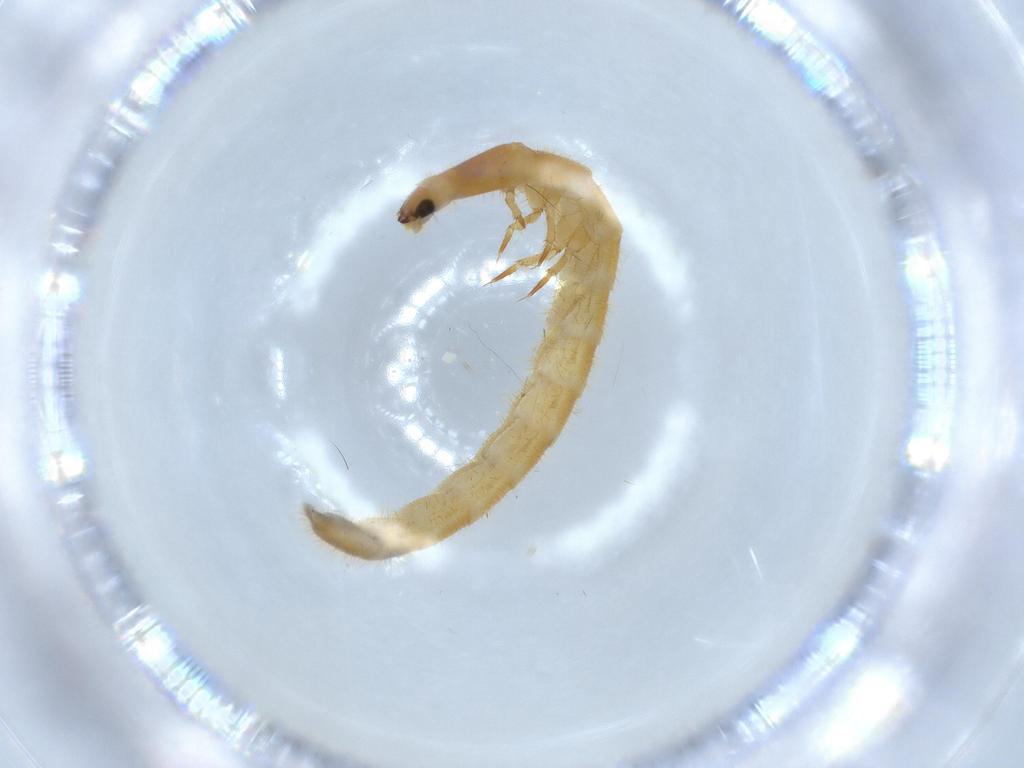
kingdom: Animalia
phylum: Arthropoda
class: Insecta
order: Coleoptera
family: Phengodidae
